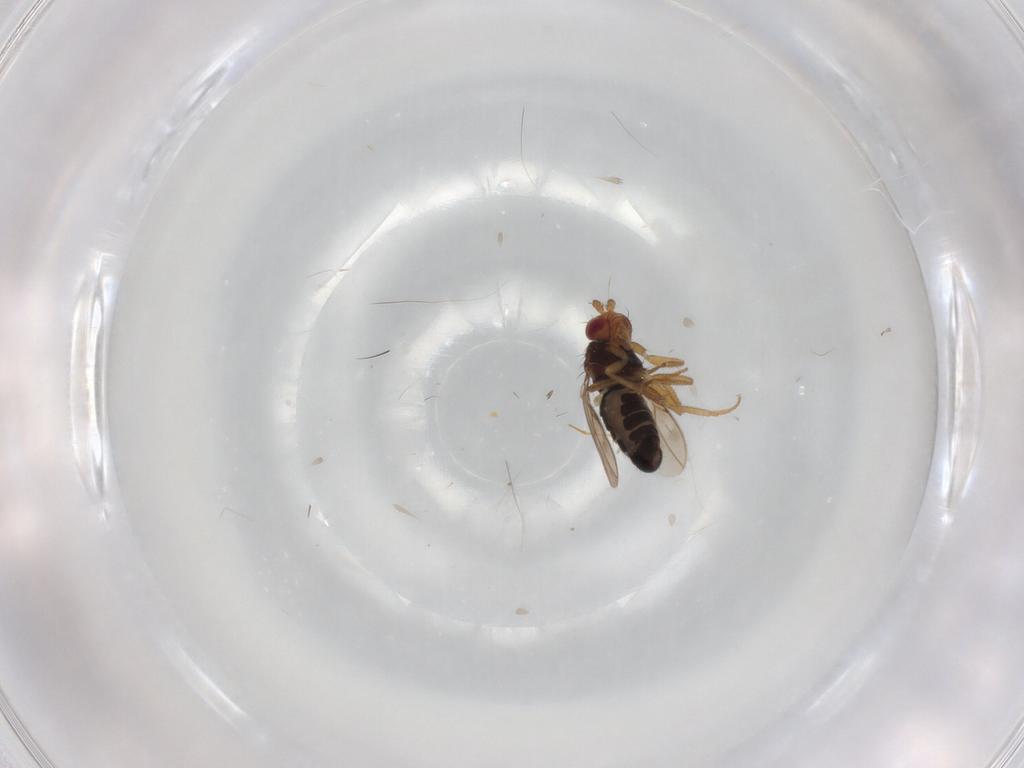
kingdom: Animalia
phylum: Arthropoda
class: Insecta
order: Diptera
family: Sphaeroceridae
